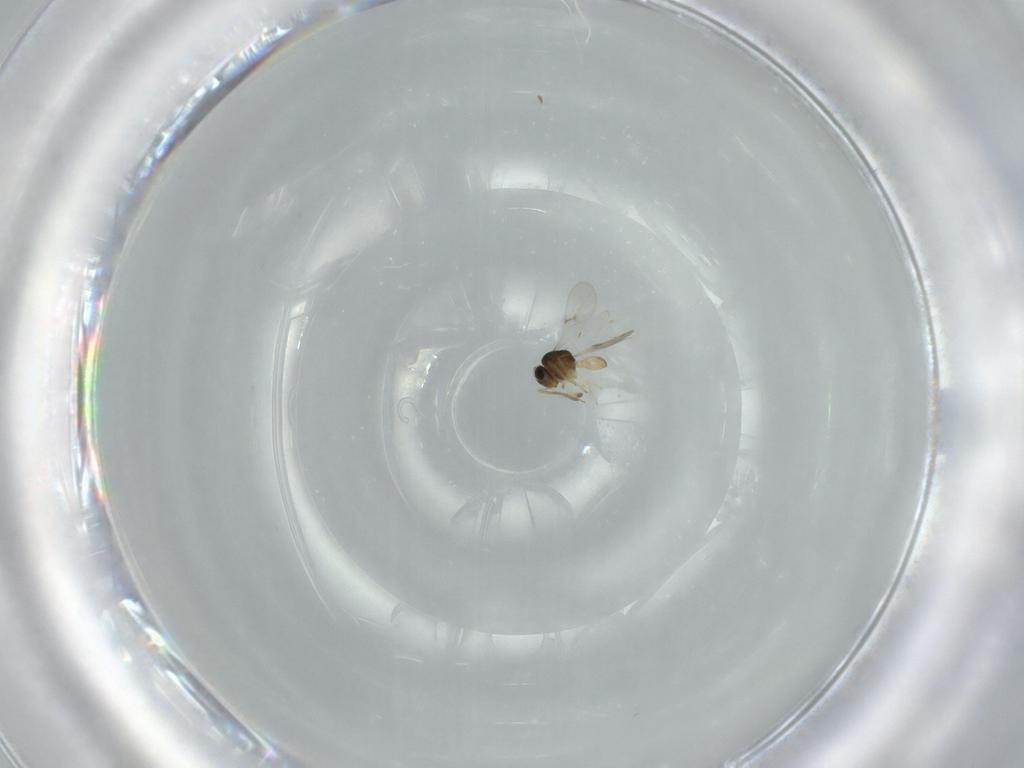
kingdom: Animalia
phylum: Arthropoda
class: Insecta
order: Hymenoptera
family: Scelionidae
